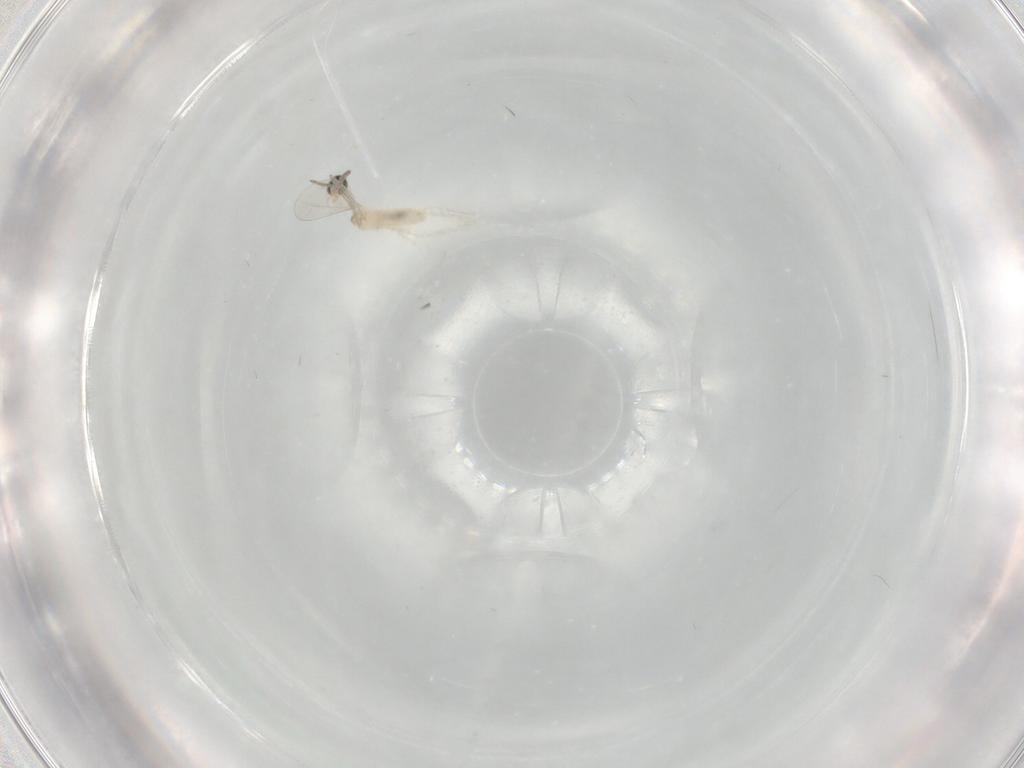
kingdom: Animalia
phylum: Arthropoda
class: Insecta
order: Diptera
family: Cecidomyiidae
